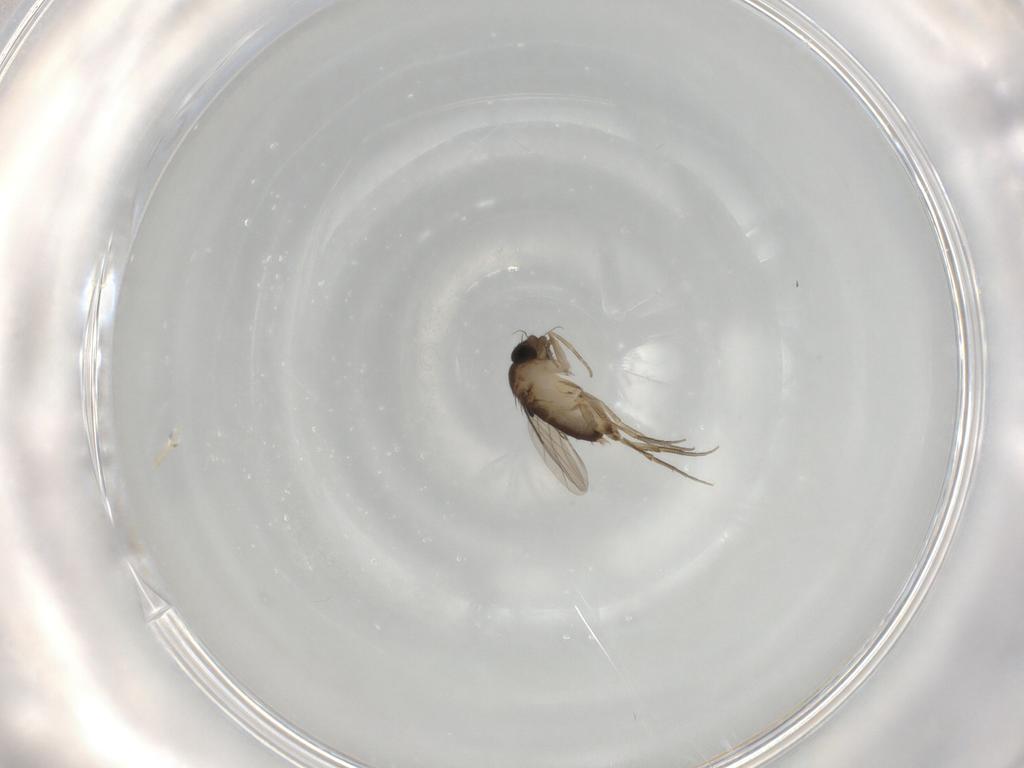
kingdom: Animalia
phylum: Arthropoda
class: Insecta
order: Diptera
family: Phoridae
